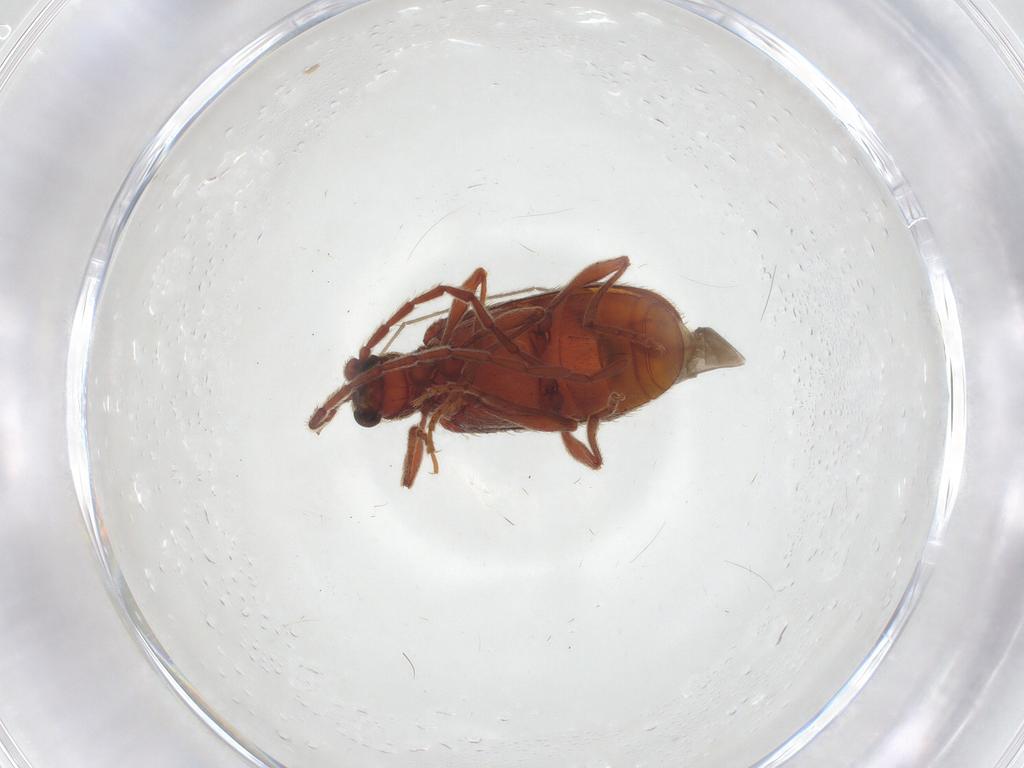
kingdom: Animalia
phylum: Arthropoda
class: Insecta
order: Coleoptera
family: Ptinidae
